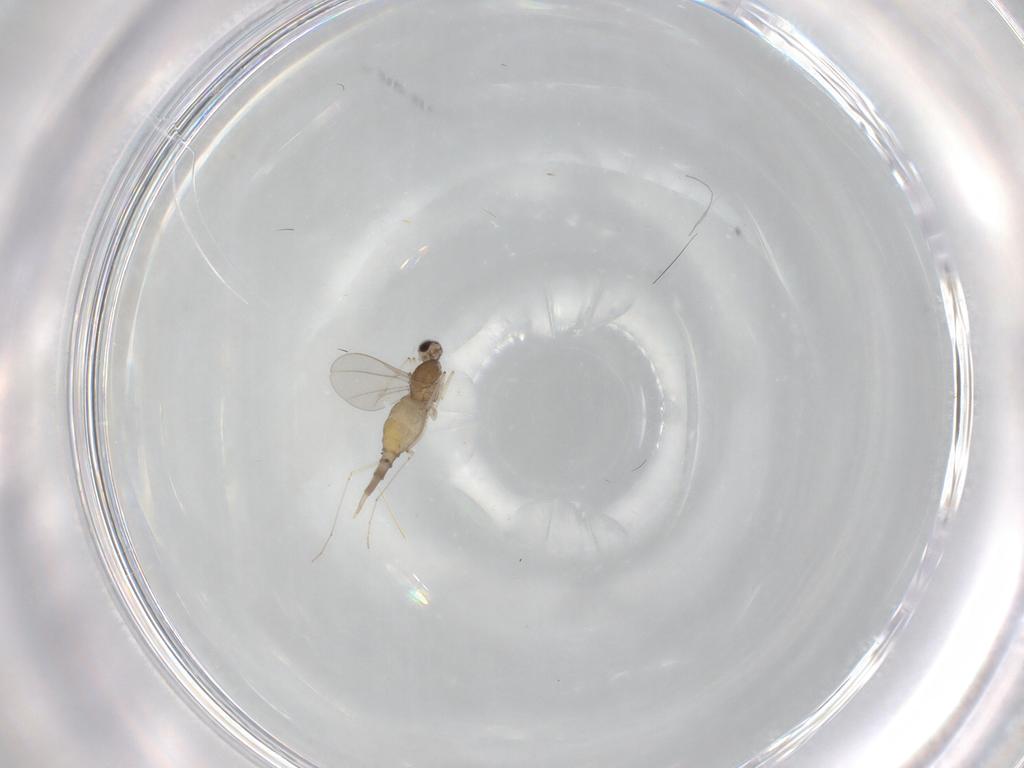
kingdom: Animalia
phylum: Arthropoda
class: Insecta
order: Diptera
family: Cecidomyiidae
